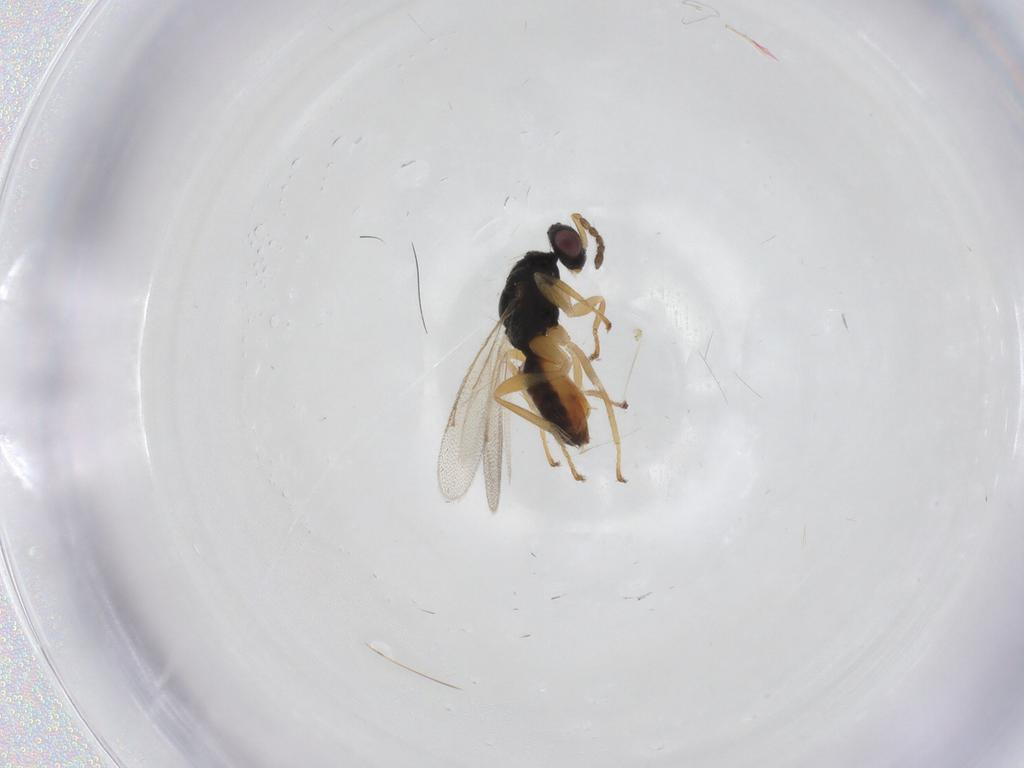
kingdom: Animalia
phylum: Arthropoda
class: Insecta
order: Hymenoptera
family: Eulophidae
